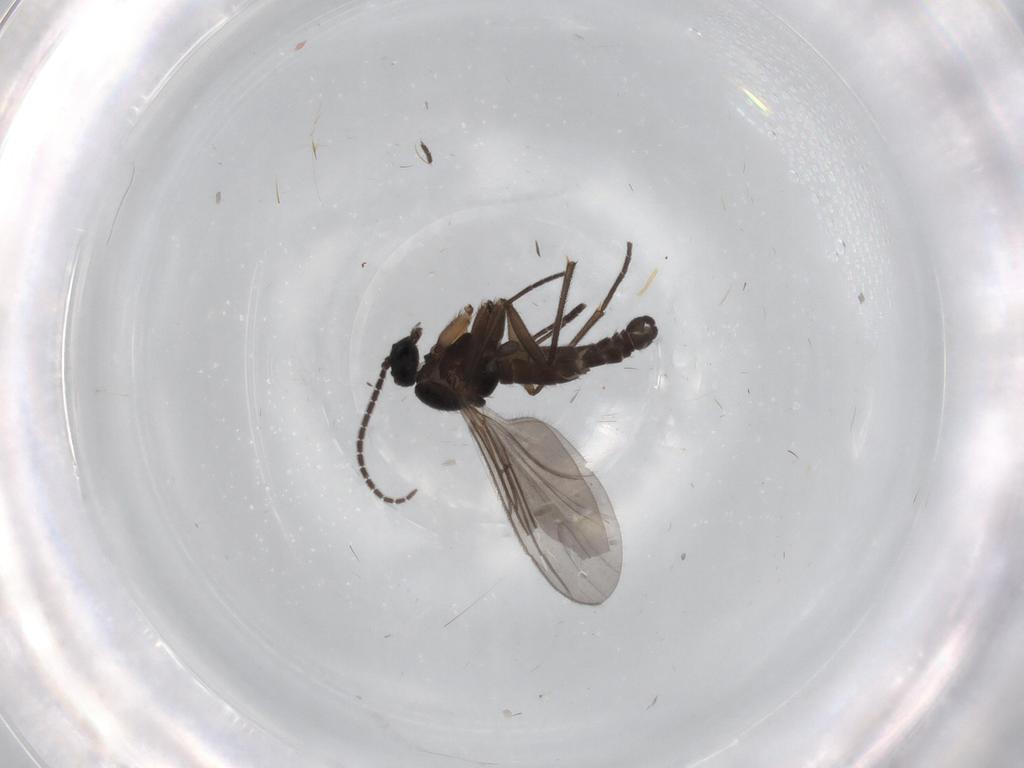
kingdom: Animalia
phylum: Arthropoda
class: Insecta
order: Diptera
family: Sciaridae
